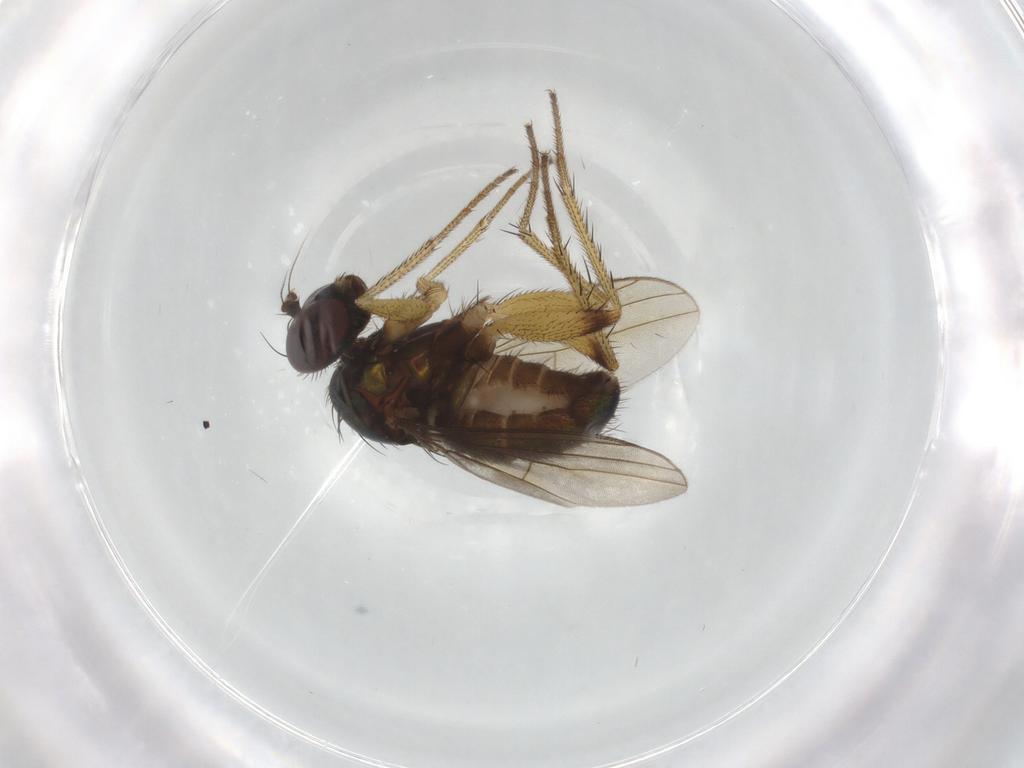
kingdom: Animalia
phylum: Arthropoda
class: Insecta
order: Diptera
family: Dolichopodidae
